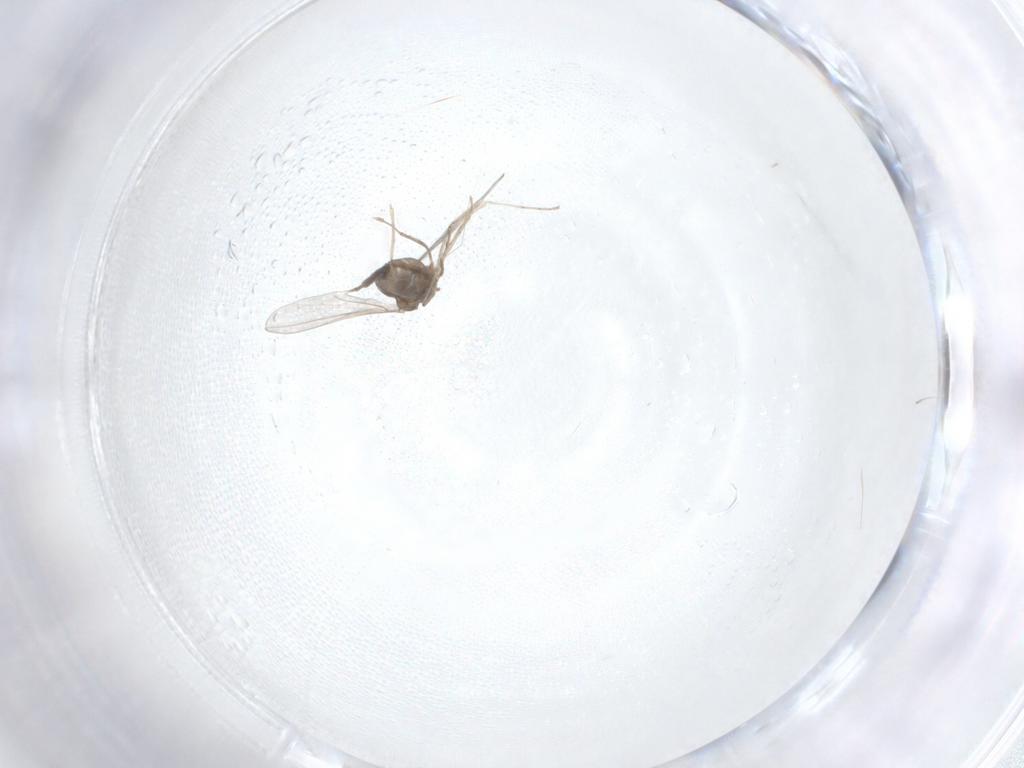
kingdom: Animalia
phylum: Arthropoda
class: Insecta
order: Diptera
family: Cecidomyiidae
